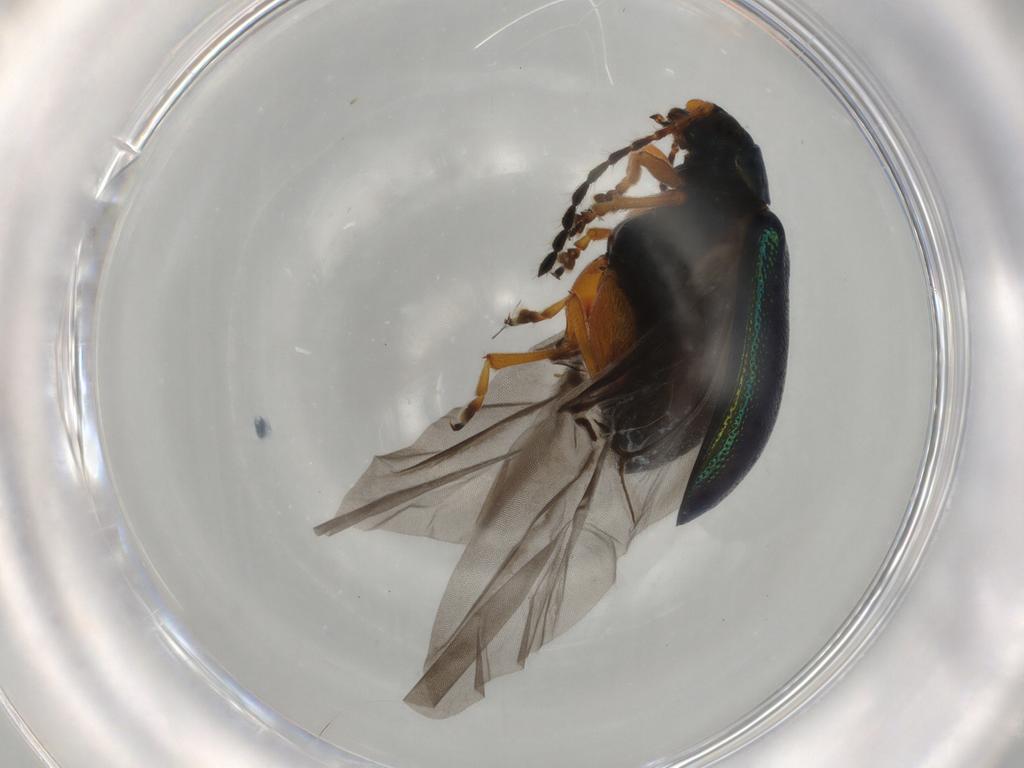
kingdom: Animalia
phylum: Arthropoda
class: Insecta
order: Coleoptera
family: Chrysomelidae
